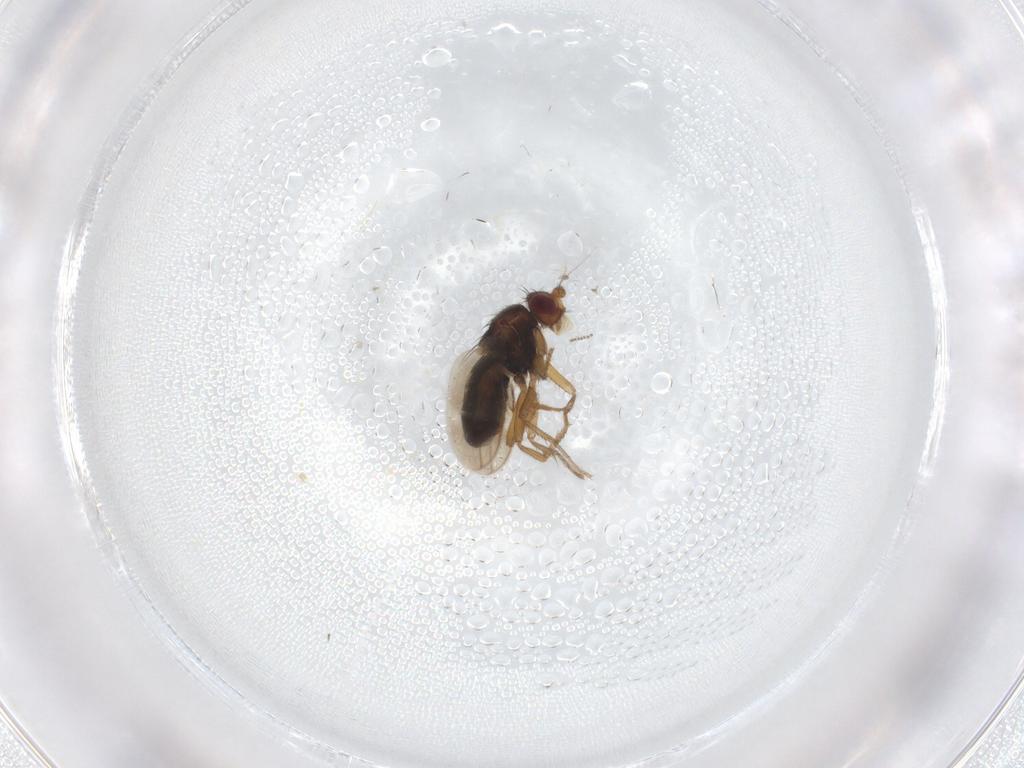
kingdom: Animalia
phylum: Arthropoda
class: Insecta
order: Diptera
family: Sphaeroceridae
